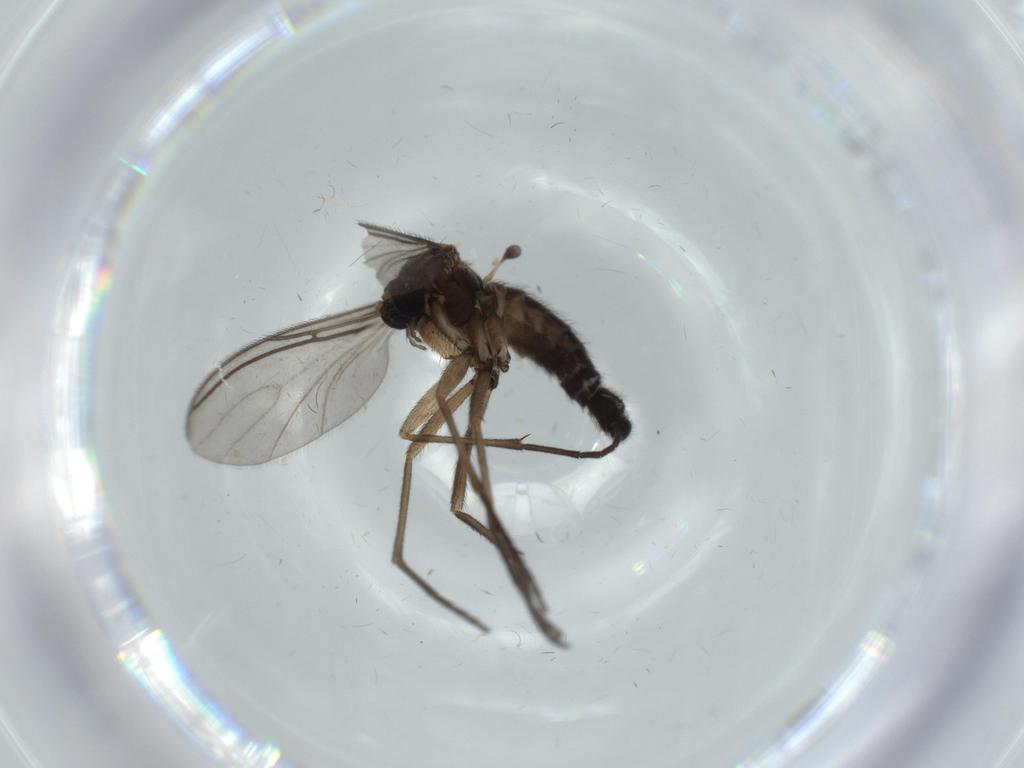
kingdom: Animalia
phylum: Arthropoda
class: Insecta
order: Diptera
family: Sciaridae
